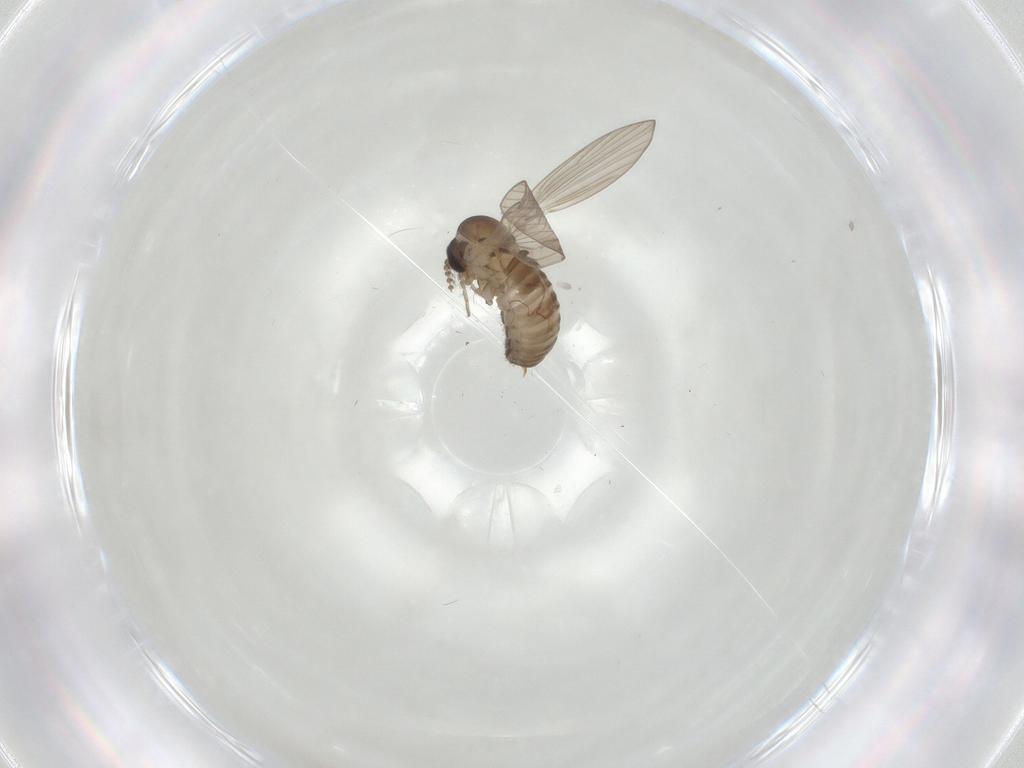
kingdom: Animalia
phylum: Arthropoda
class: Insecta
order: Diptera
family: Psychodidae
